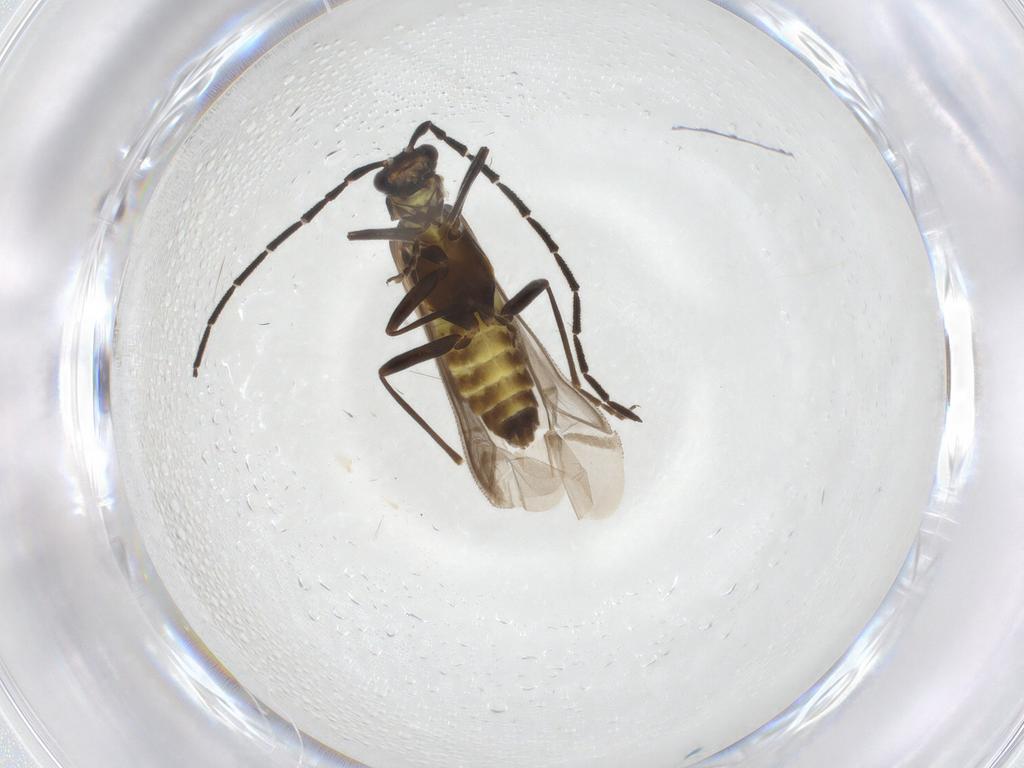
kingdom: Animalia
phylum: Arthropoda
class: Insecta
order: Coleoptera
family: Cantharidae
